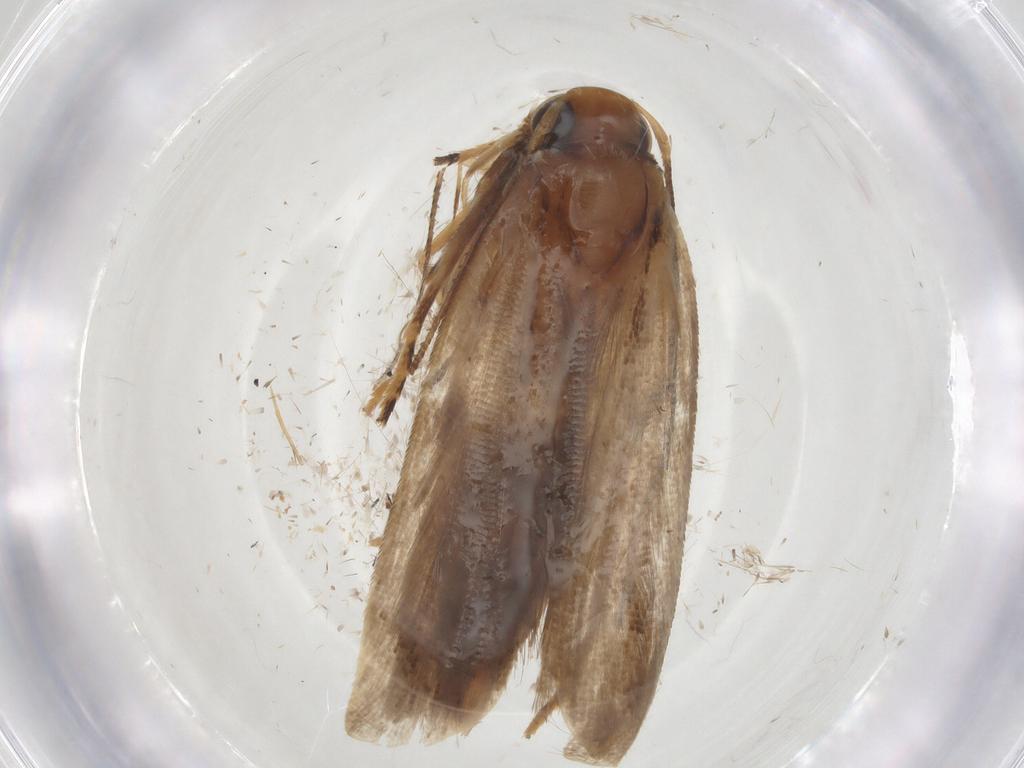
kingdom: Animalia
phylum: Arthropoda
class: Insecta
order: Lepidoptera
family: Gelechiidae
